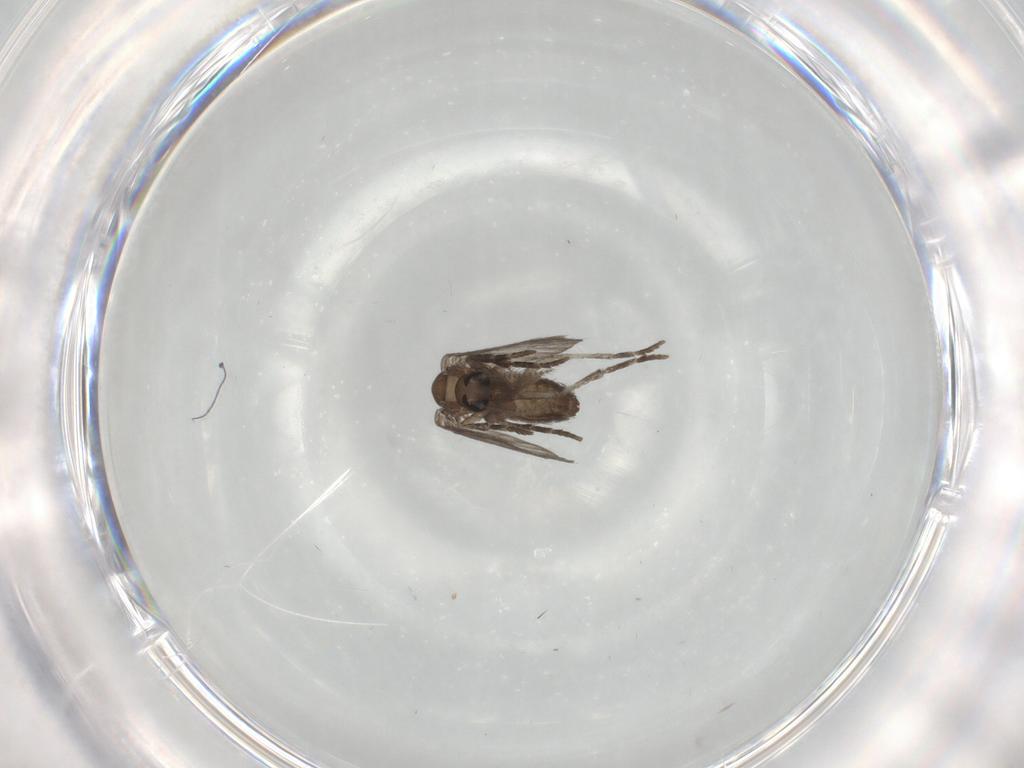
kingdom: Animalia
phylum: Arthropoda
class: Insecta
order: Diptera
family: Psychodidae
